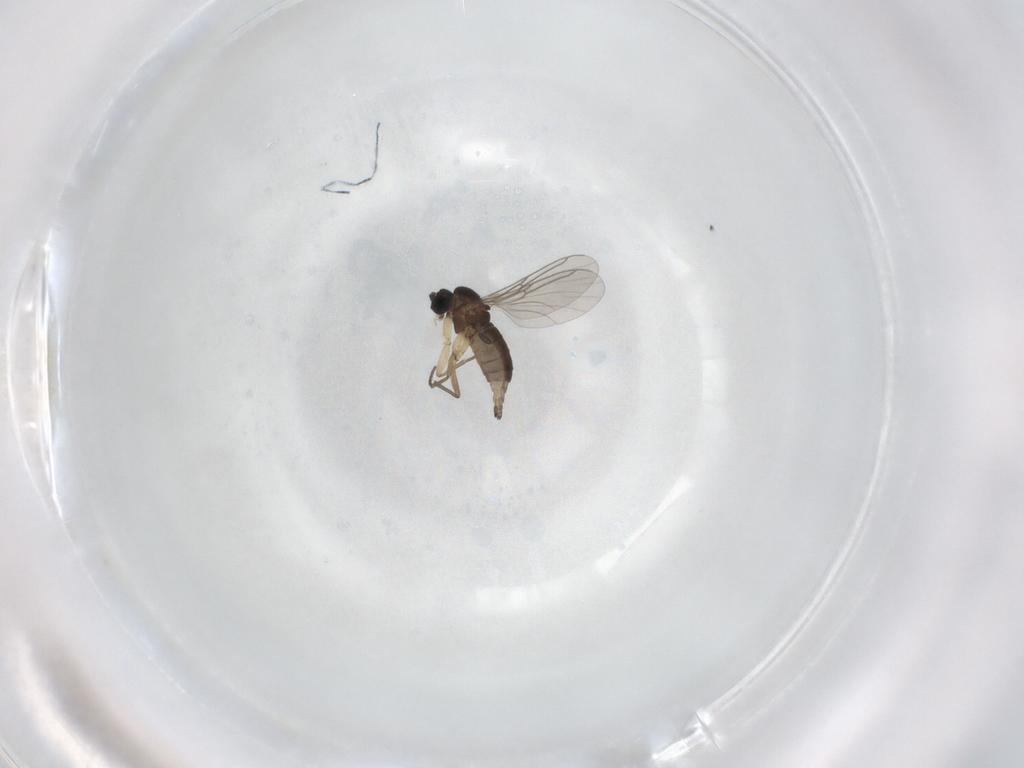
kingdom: Animalia
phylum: Arthropoda
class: Insecta
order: Diptera
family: Sciaridae
